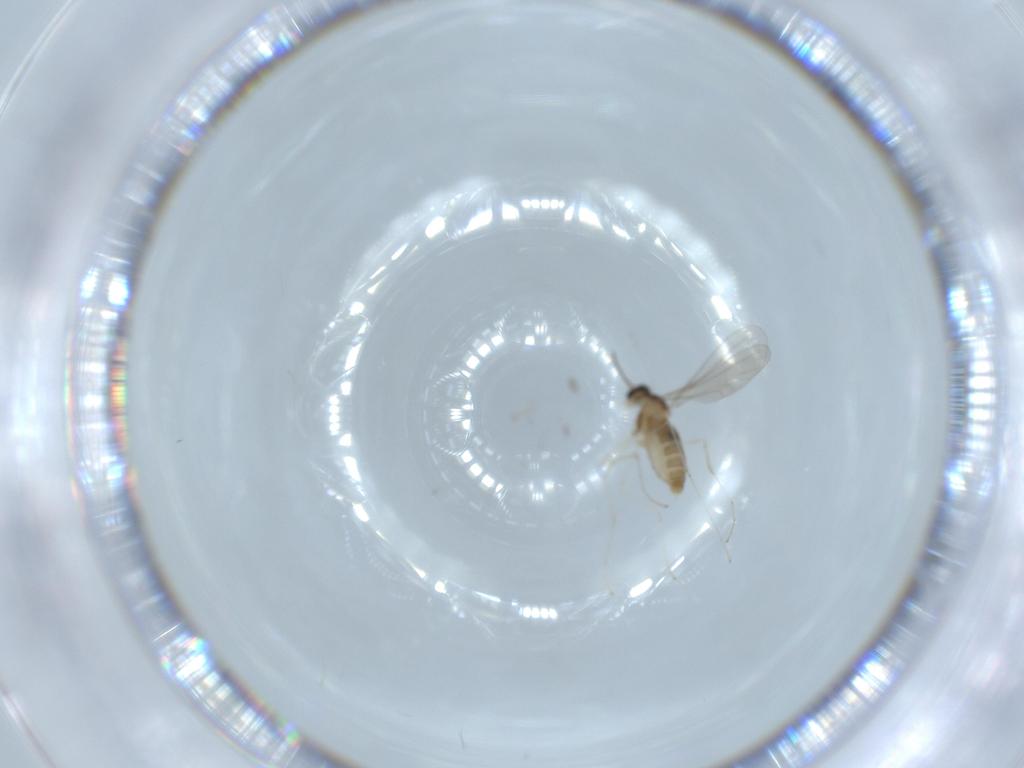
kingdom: Animalia
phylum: Arthropoda
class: Insecta
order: Diptera
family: Cecidomyiidae
